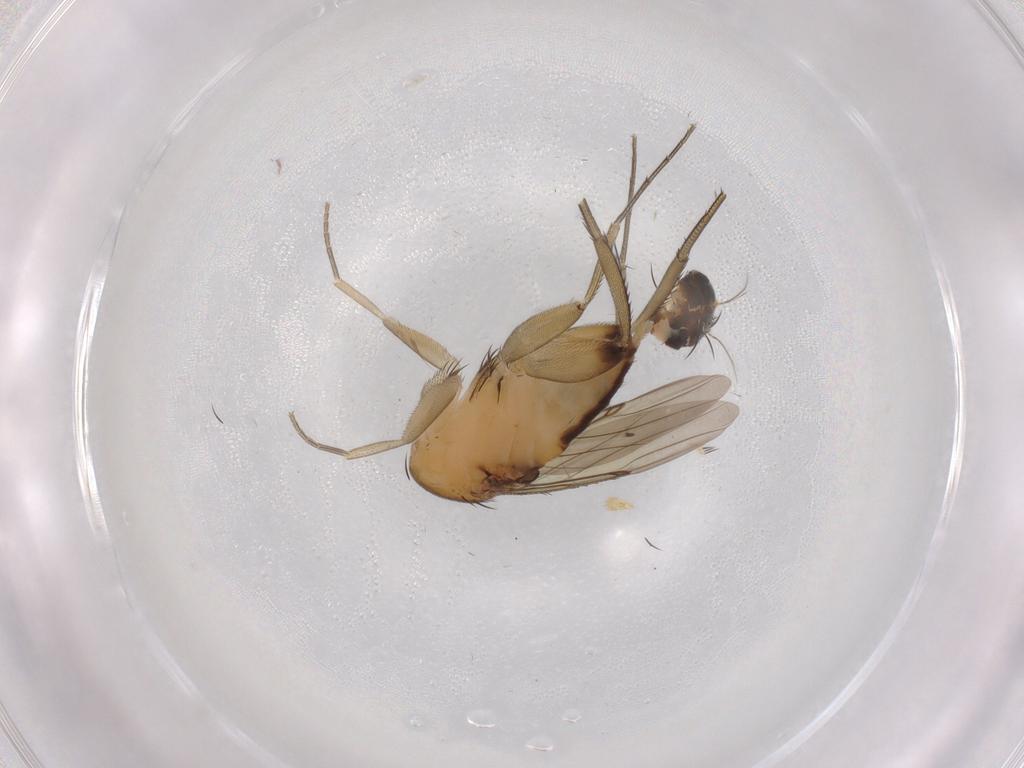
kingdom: Animalia
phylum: Arthropoda
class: Insecta
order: Diptera
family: Phoridae
